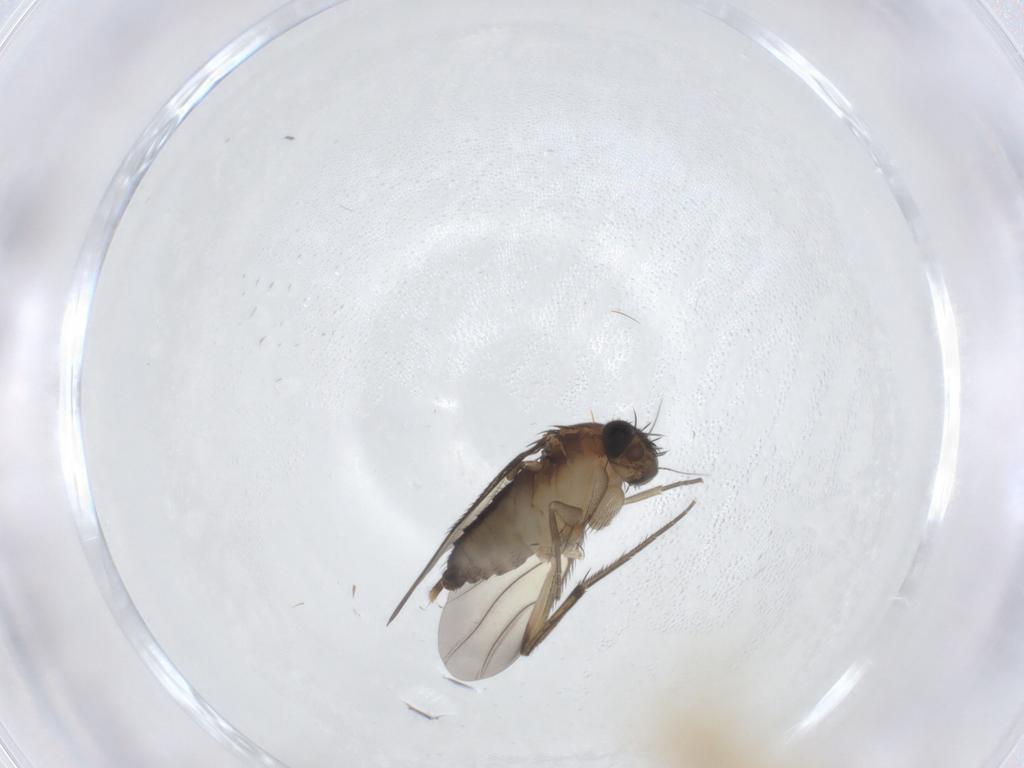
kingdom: Animalia
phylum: Arthropoda
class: Insecta
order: Diptera
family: Phoridae
